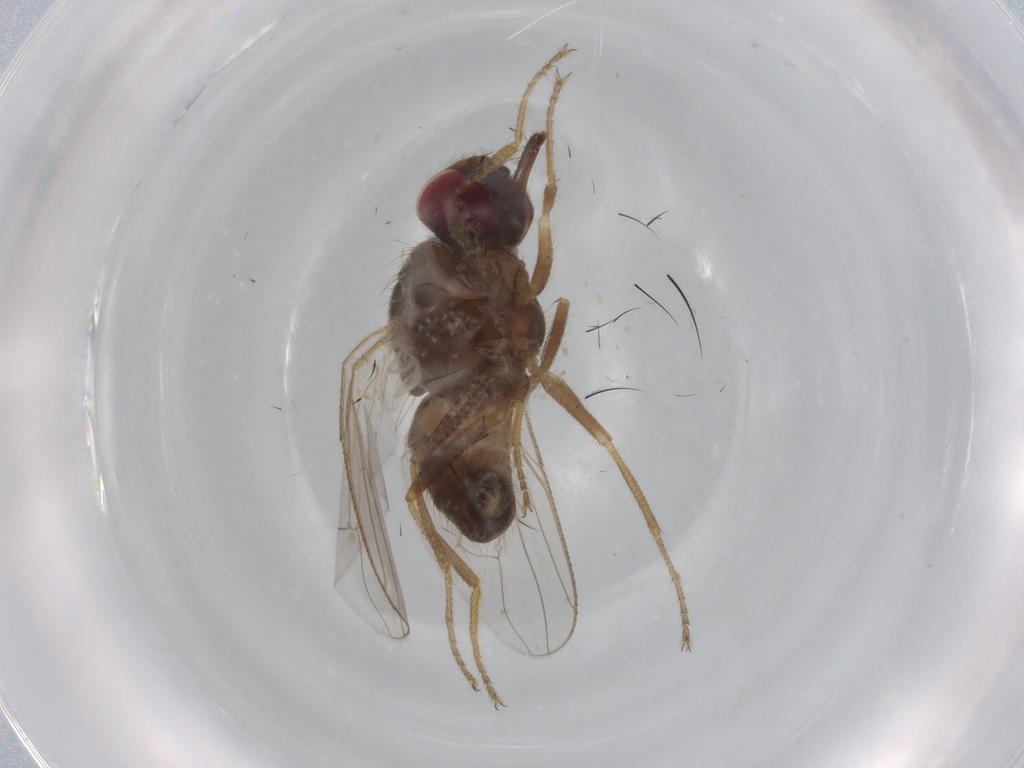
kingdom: Animalia
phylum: Arthropoda
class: Insecta
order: Diptera
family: Muscidae
